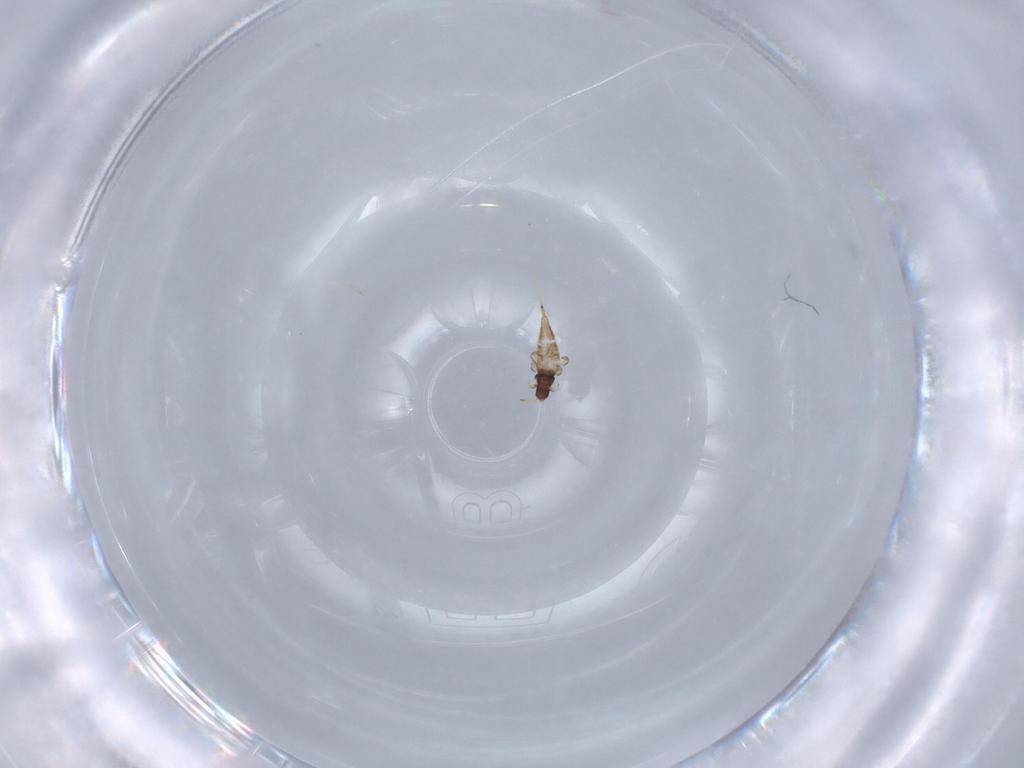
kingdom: Animalia
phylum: Arthropoda
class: Insecta
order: Thysanoptera
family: Phlaeothripidae
